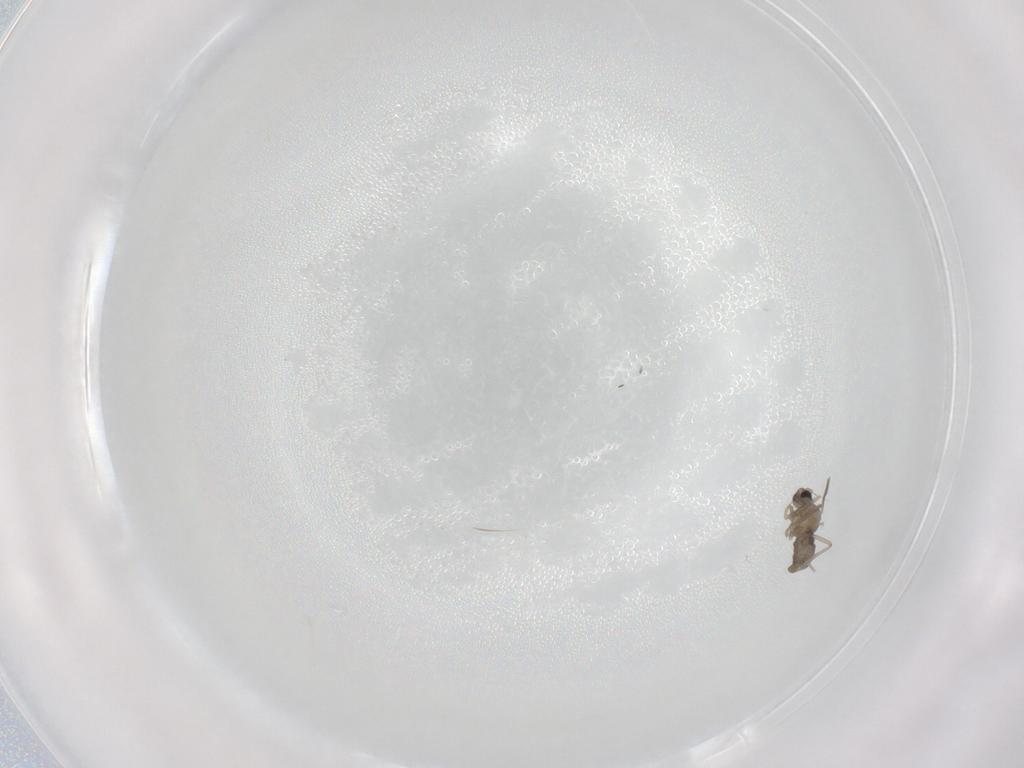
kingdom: Animalia
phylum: Arthropoda
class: Insecta
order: Diptera
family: Cecidomyiidae
